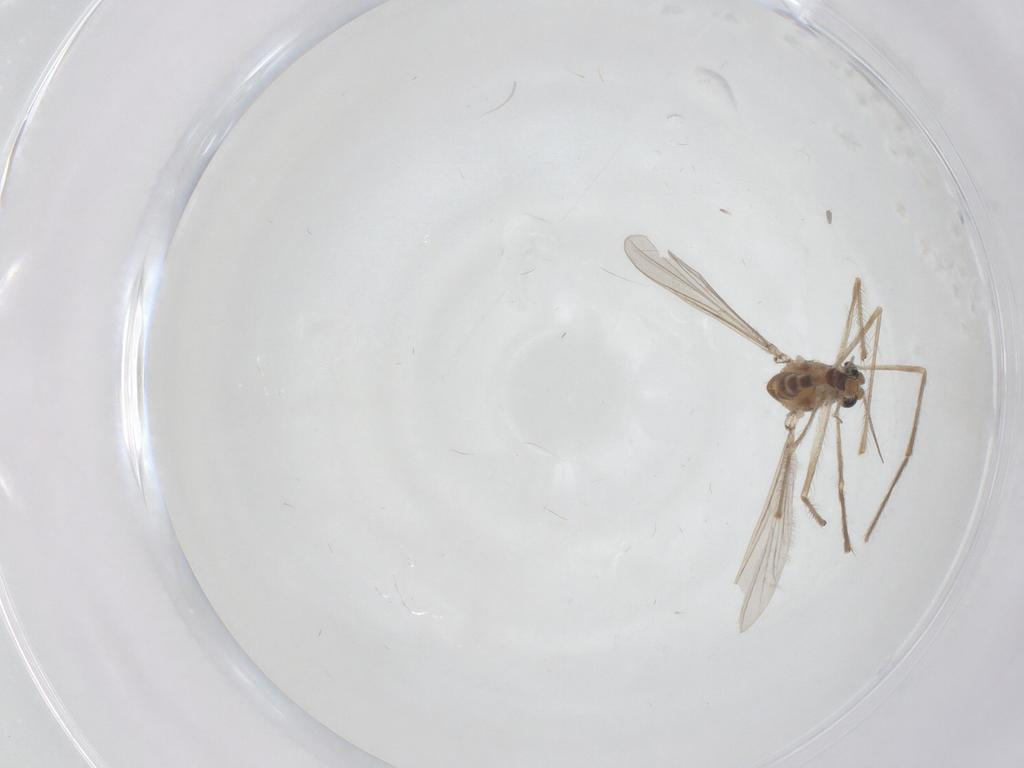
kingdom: Animalia
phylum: Arthropoda
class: Insecta
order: Diptera
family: Chironomidae
